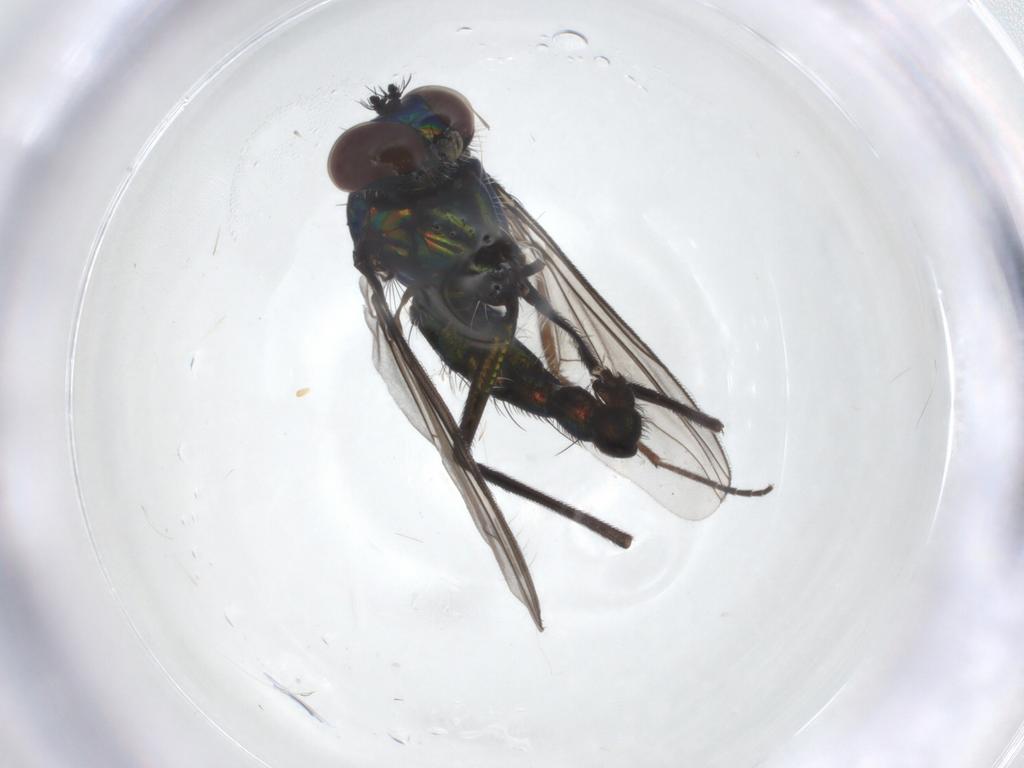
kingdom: Animalia
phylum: Arthropoda
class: Insecta
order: Diptera
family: Dolichopodidae
